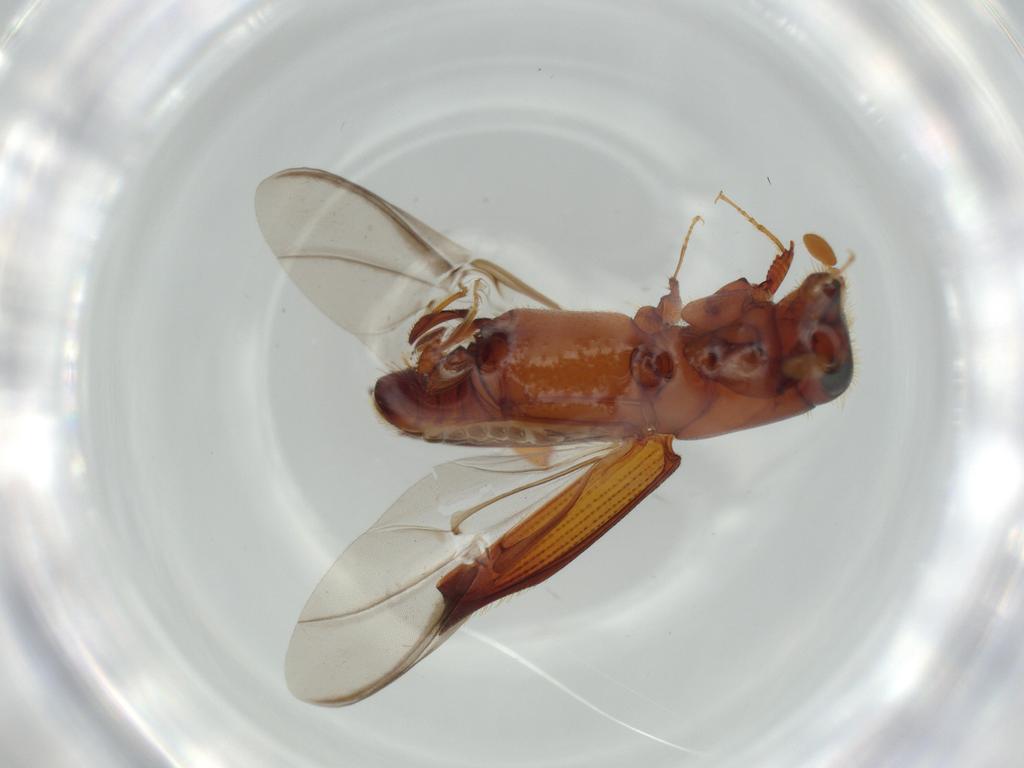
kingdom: Animalia
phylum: Arthropoda
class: Insecta
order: Coleoptera
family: Curculionidae
